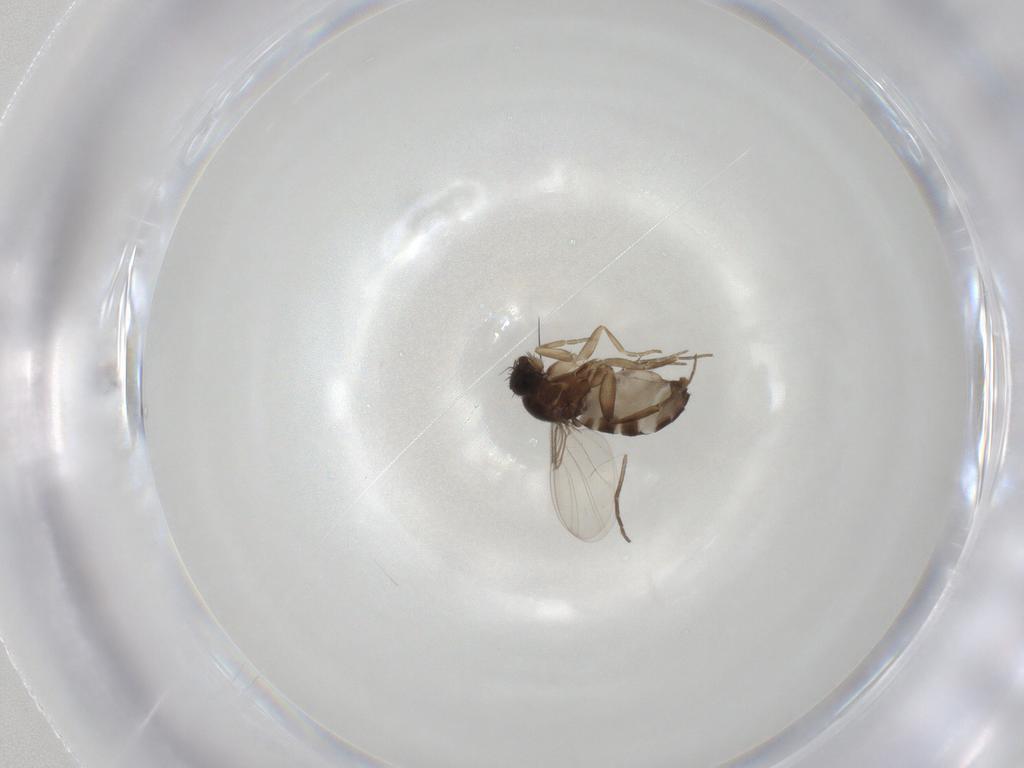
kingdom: Animalia
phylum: Arthropoda
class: Insecta
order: Diptera
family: Phoridae
